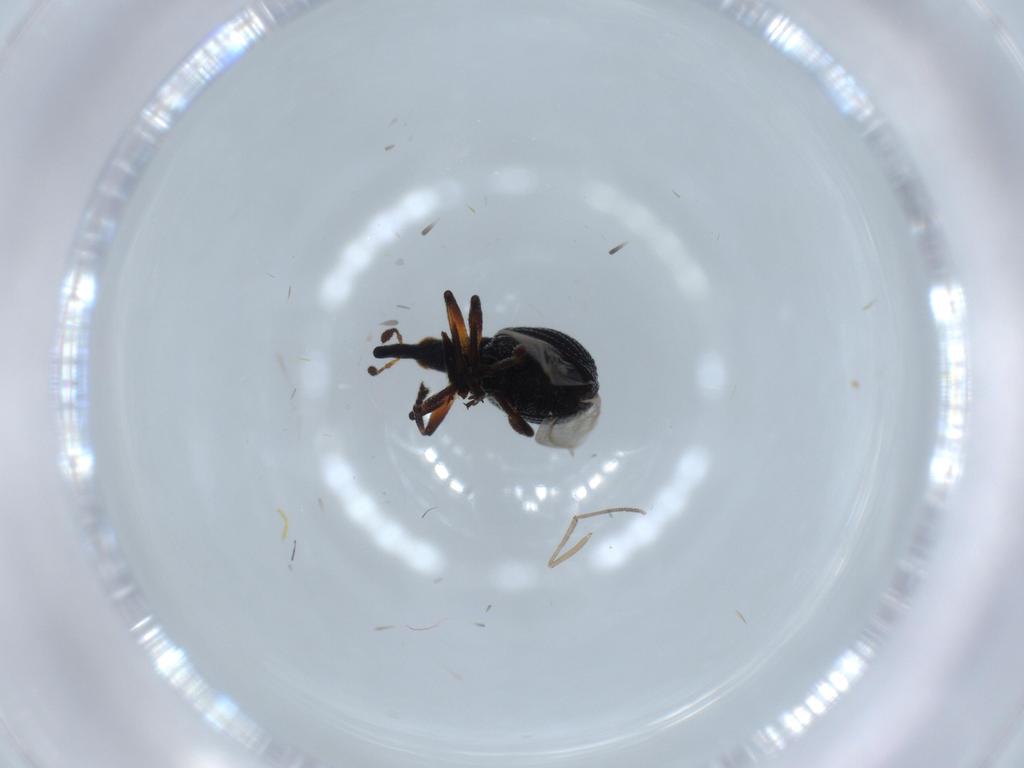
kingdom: Animalia
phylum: Arthropoda
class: Insecta
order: Coleoptera
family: Brentidae
